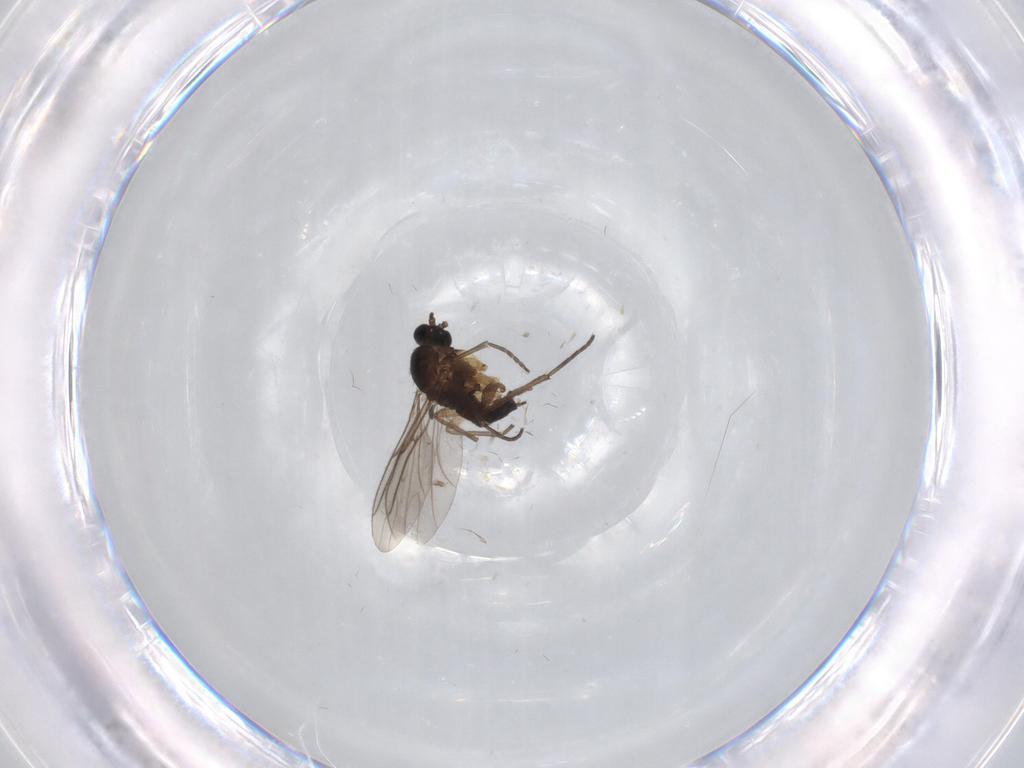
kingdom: Animalia
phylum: Arthropoda
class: Insecta
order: Diptera
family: Sciaridae
